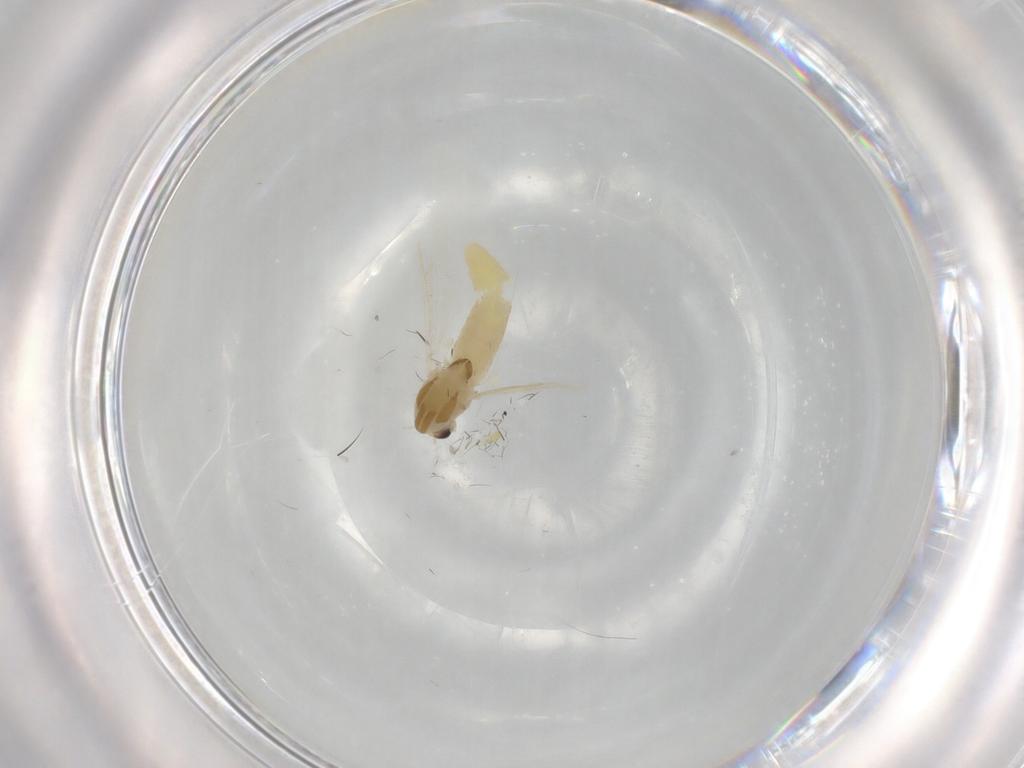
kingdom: Animalia
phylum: Arthropoda
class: Insecta
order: Diptera
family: Chironomidae
